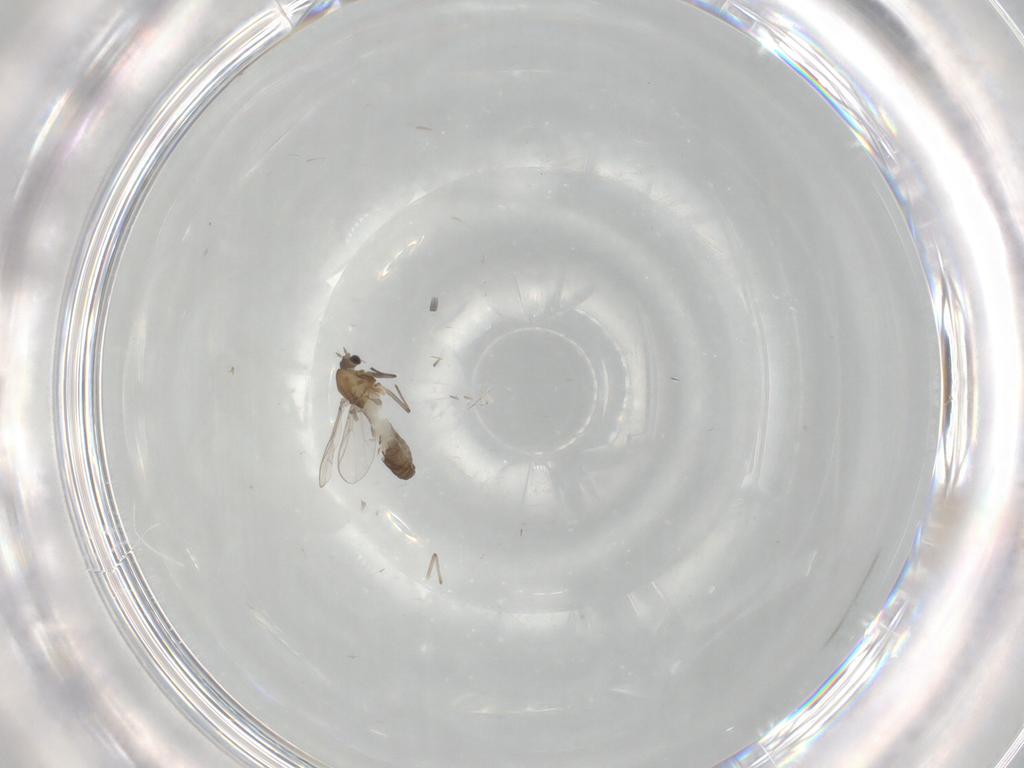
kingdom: Animalia
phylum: Arthropoda
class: Insecta
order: Diptera
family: Chironomidae
